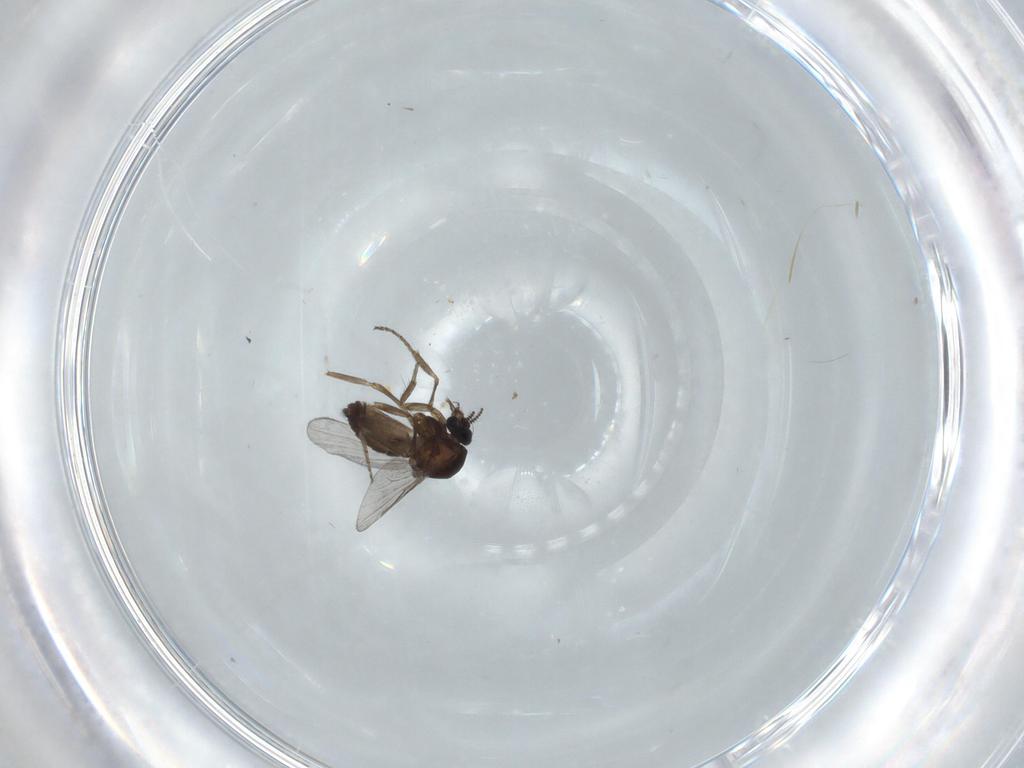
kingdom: Animalia
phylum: Arthropoda
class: Insecta
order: Diptera
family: Chironomidae
